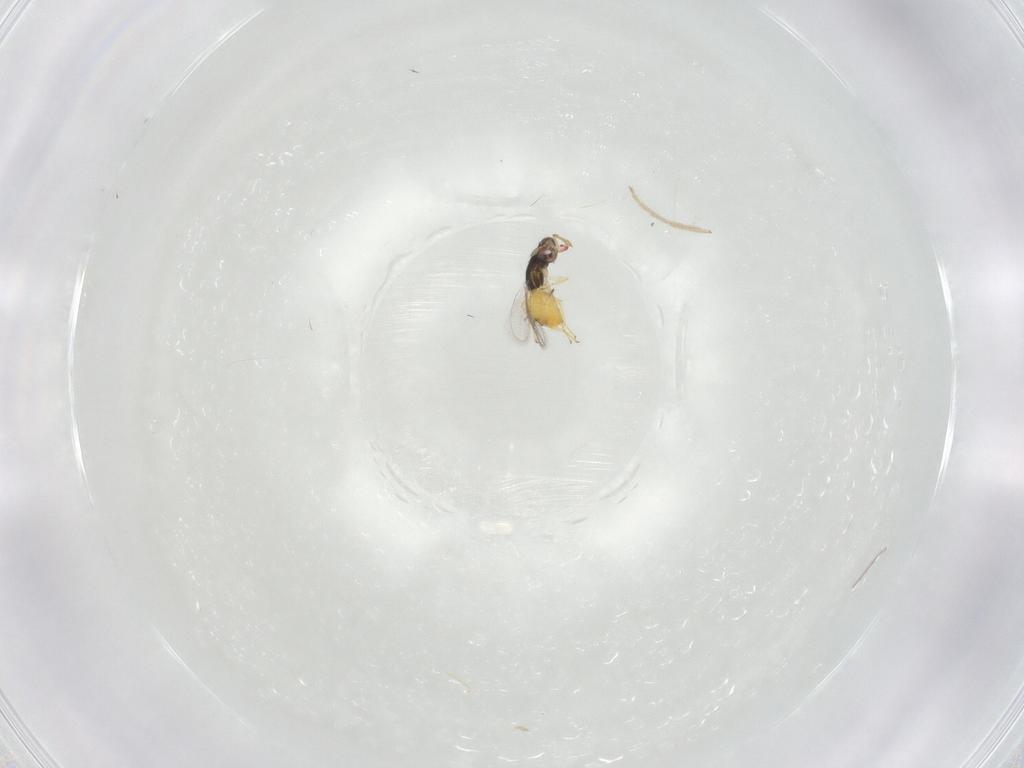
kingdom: Animalia
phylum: Arthropoda
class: Insecta
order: Hymenoptera
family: Eulophidae
